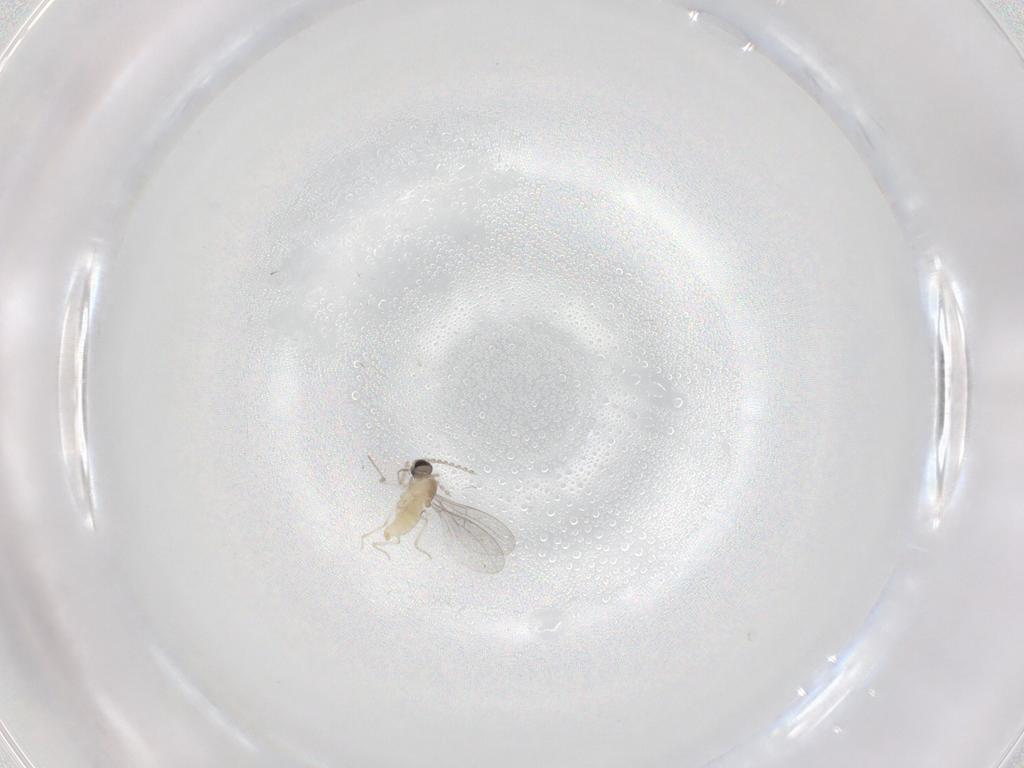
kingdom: Animalia
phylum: Arthropoda
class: Insecta
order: Diptera
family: Cecidomyiidae
